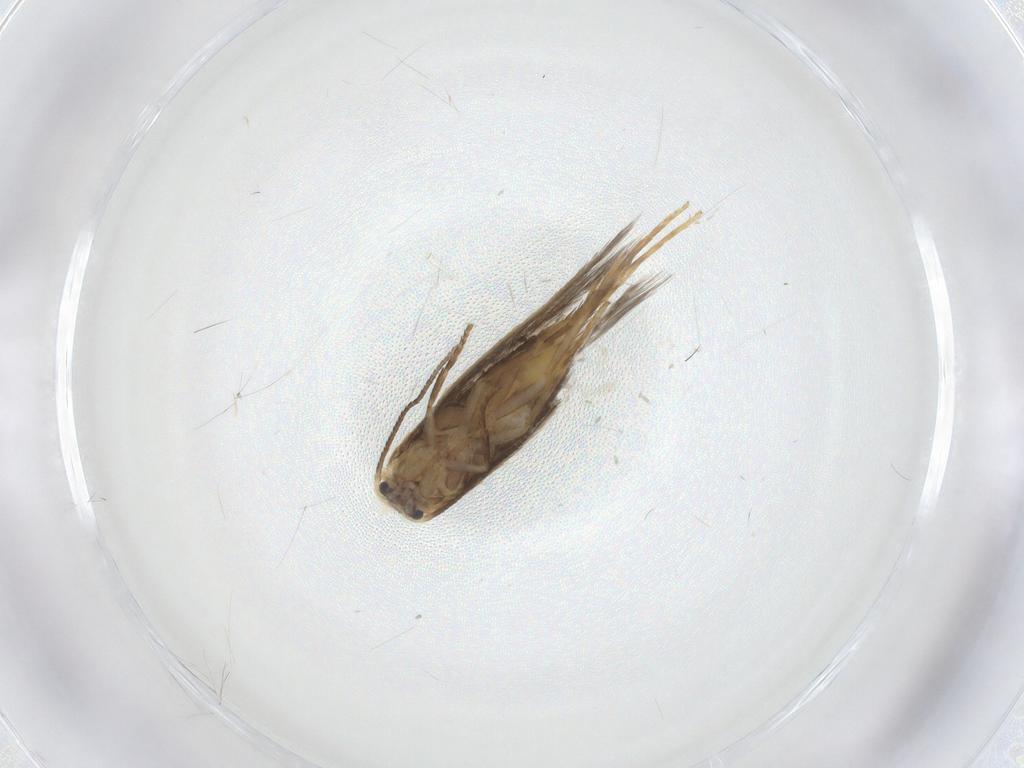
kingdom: Animalia
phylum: Arthropoda
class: Insecta
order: Lepidoptera
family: Nepticulidae
